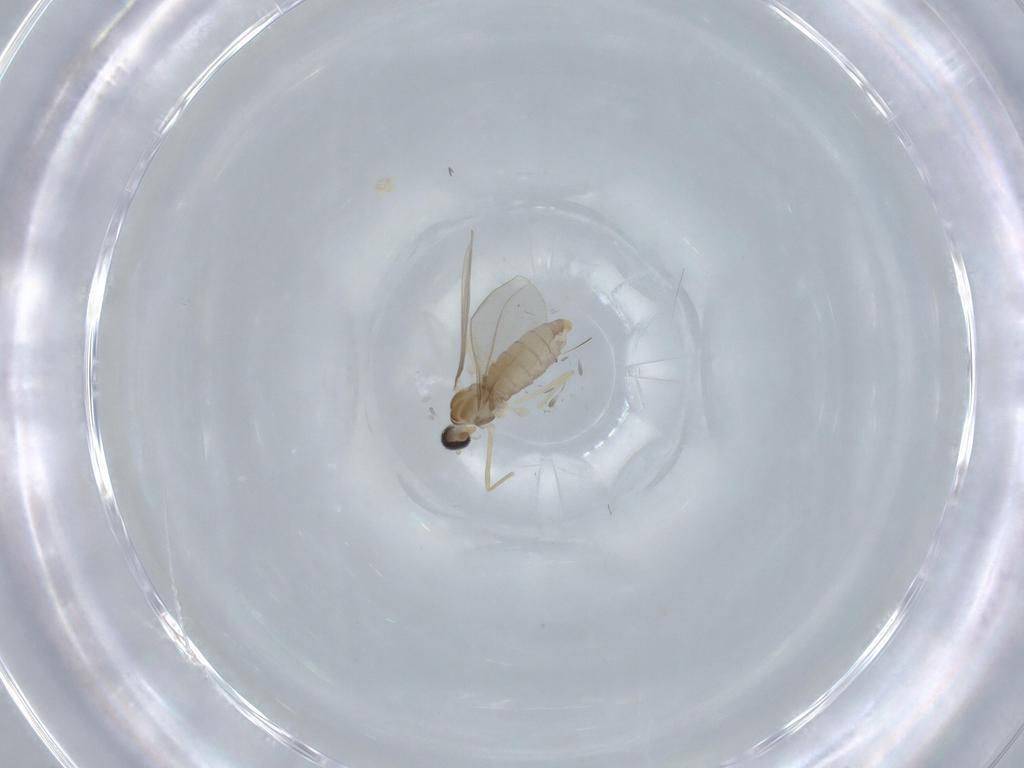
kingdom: Animalia
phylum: Arthropoda
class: Insecta
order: Diptera
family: Cecidomyiidae
